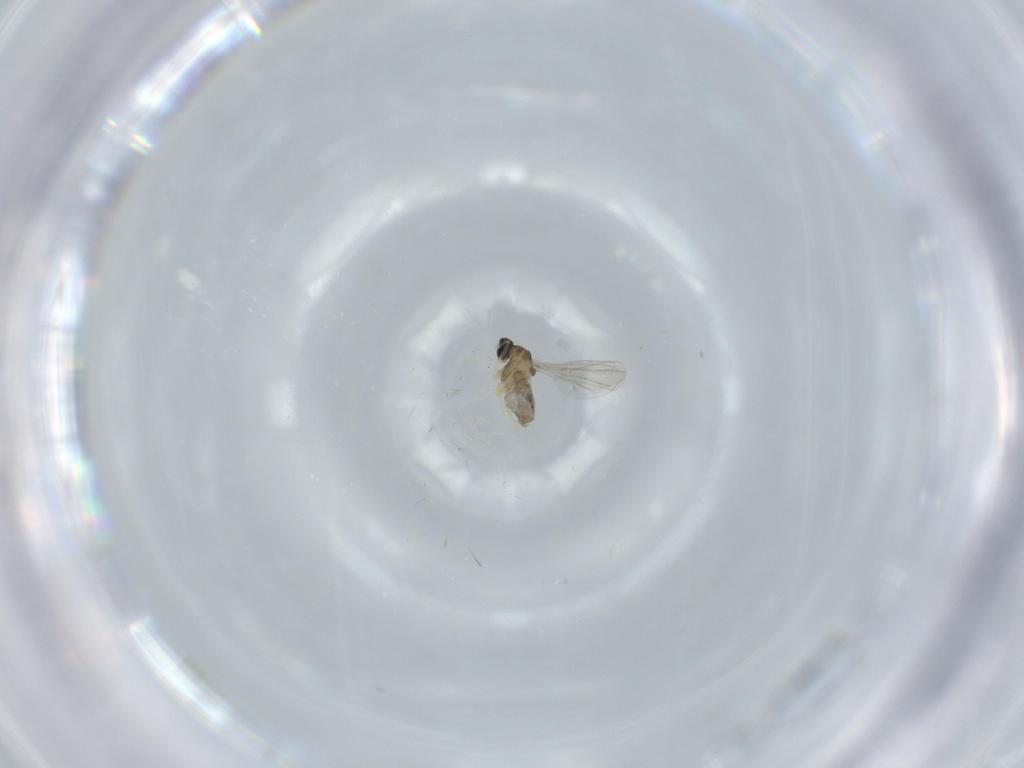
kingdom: Animalia
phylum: Arthropoda
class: Insecta
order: Diptera
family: Cecidomyiidae
